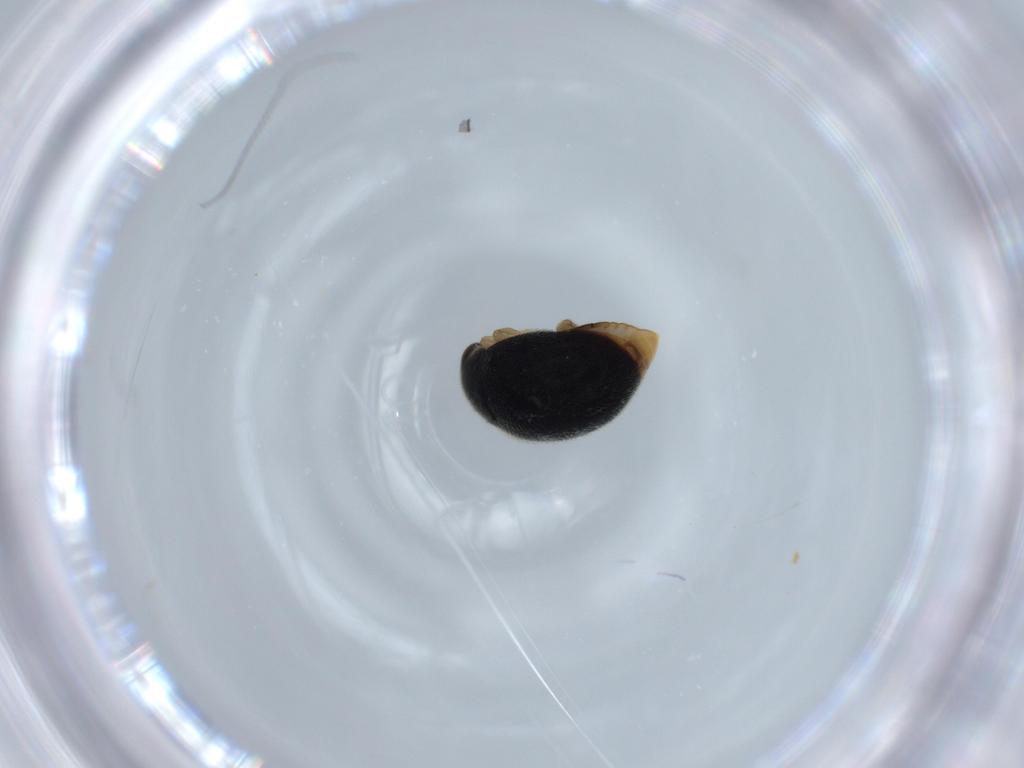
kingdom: Animalia
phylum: Arthropoda
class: Insecta
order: Coleoptera
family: Coccinellidae
